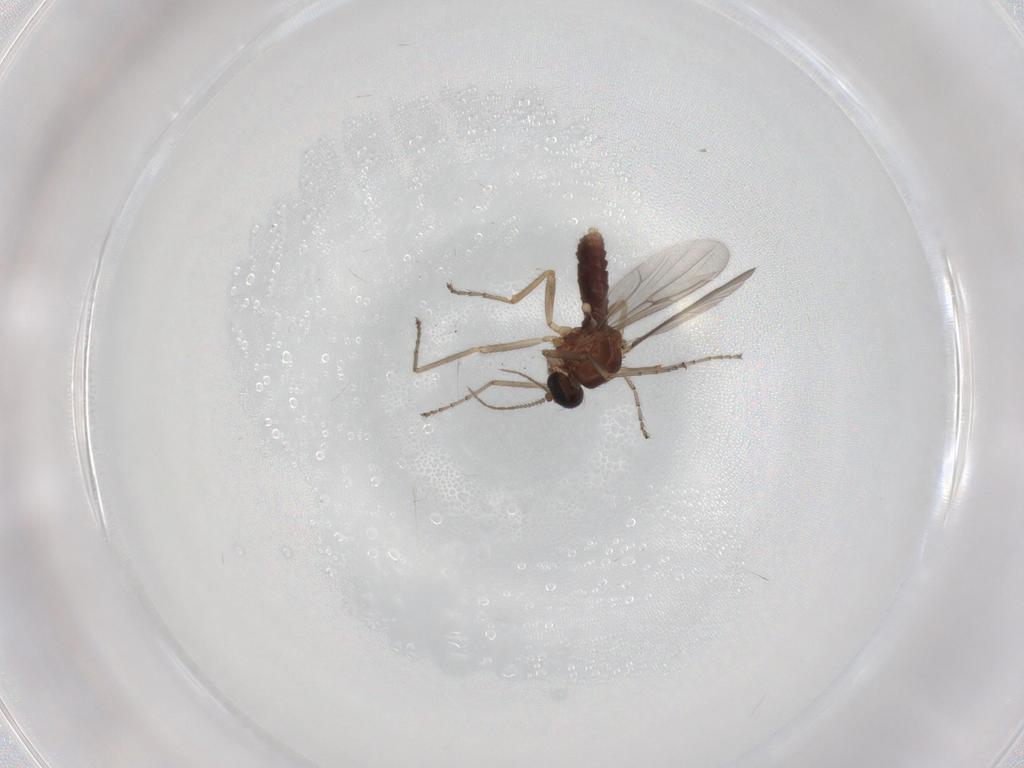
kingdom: Animalia
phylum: Arthropoda
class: Insecta
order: Diptera
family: Ceratopogonidae
